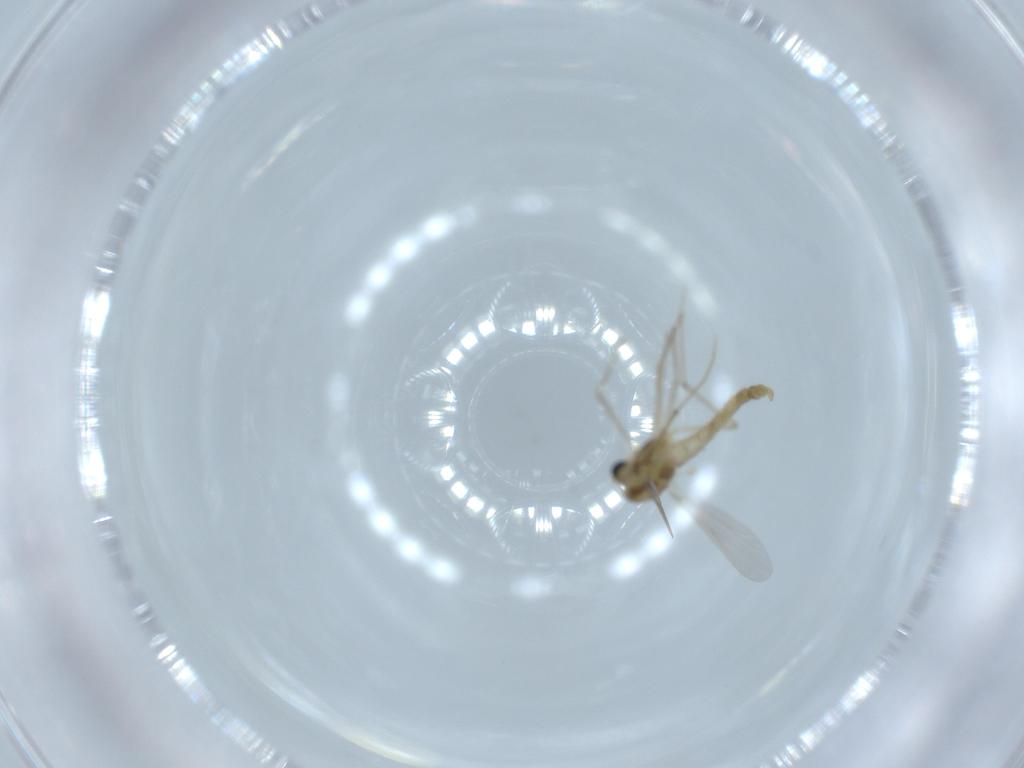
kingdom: Animalia
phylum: Arthropoda
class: Insecta
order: Diptera
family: Chironomidae
